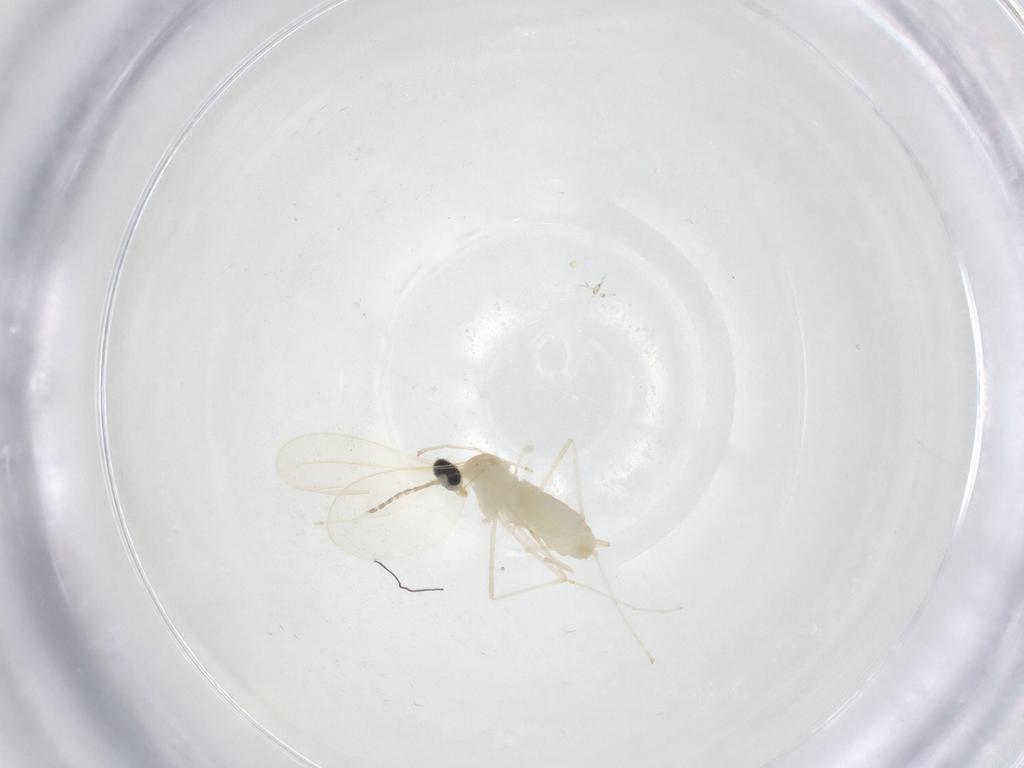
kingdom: Animalia
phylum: Arthropoda
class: Insecta
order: Diptera
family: Cecidomyiidae
